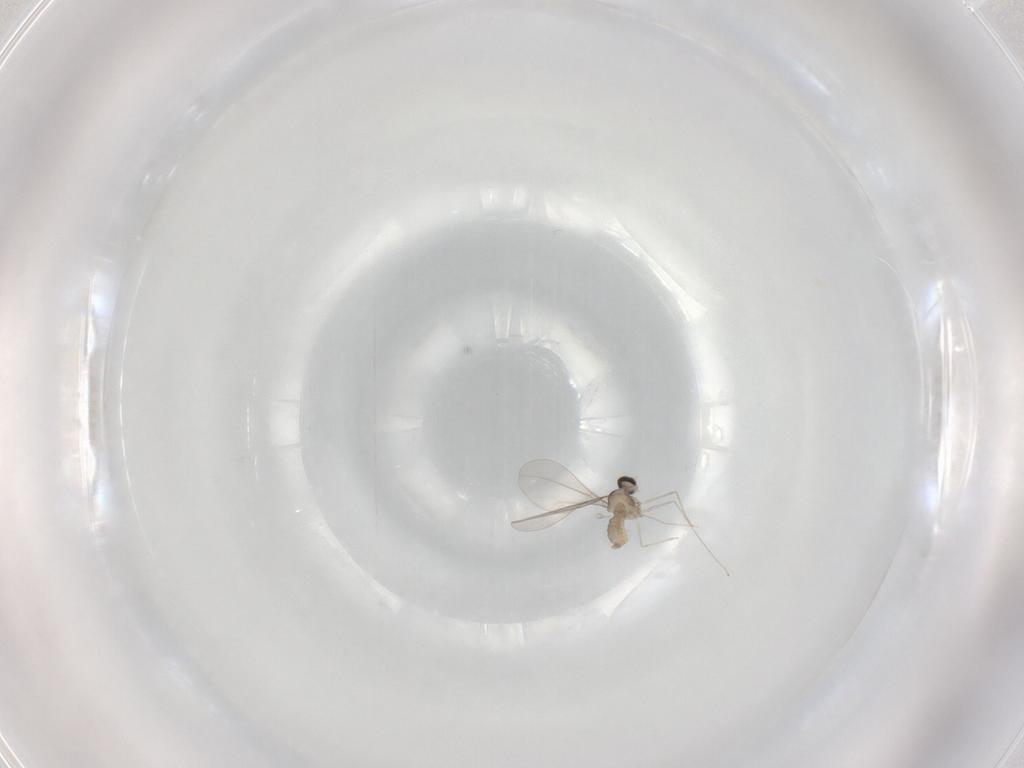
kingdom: Animalia
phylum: Arthropoda
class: Insecta
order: Diptera
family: Cecidomyiidae
